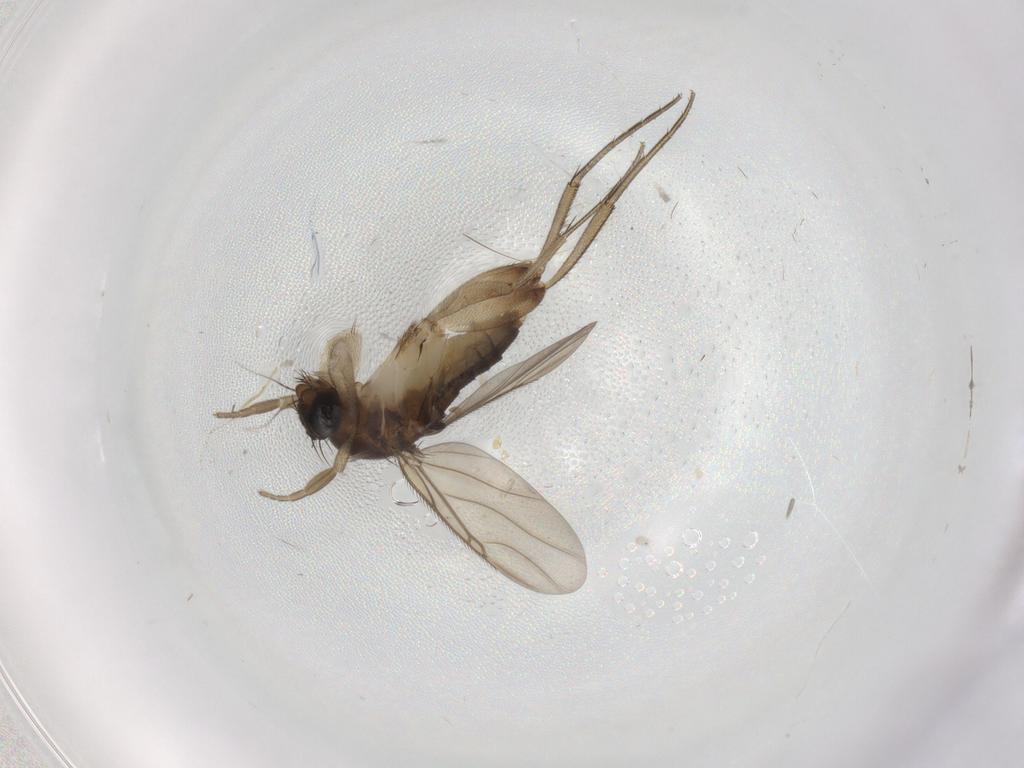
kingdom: Animalia
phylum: Arthropoda
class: Insecta
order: Diptera
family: Phoridae
